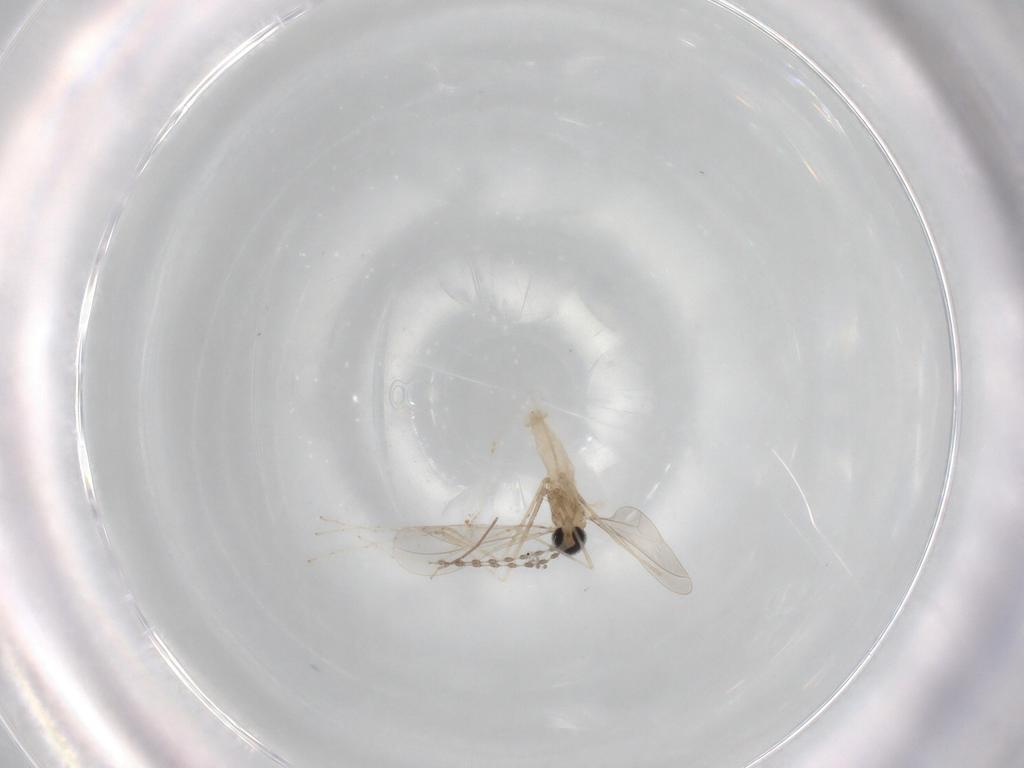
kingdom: Animalia
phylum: Arthropoda
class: Insecta
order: Diptera
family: Cecidomyiidae
